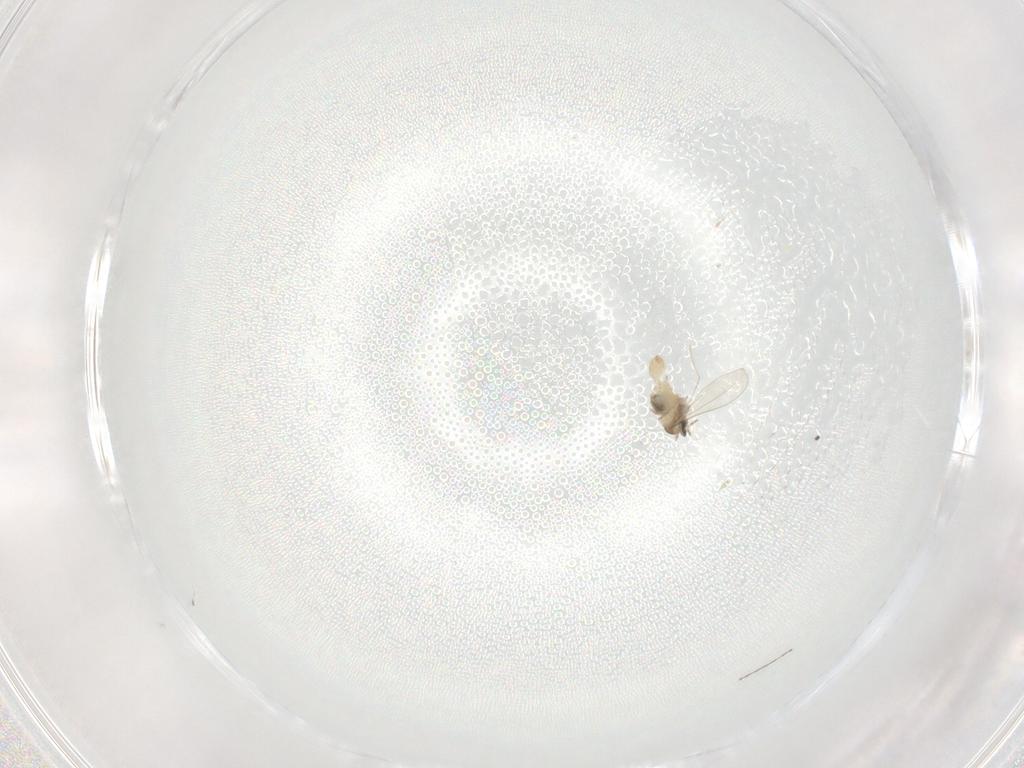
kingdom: Animalia
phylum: Arthropoda
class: Insecta
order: Diptera
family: Cecidomyiidae
